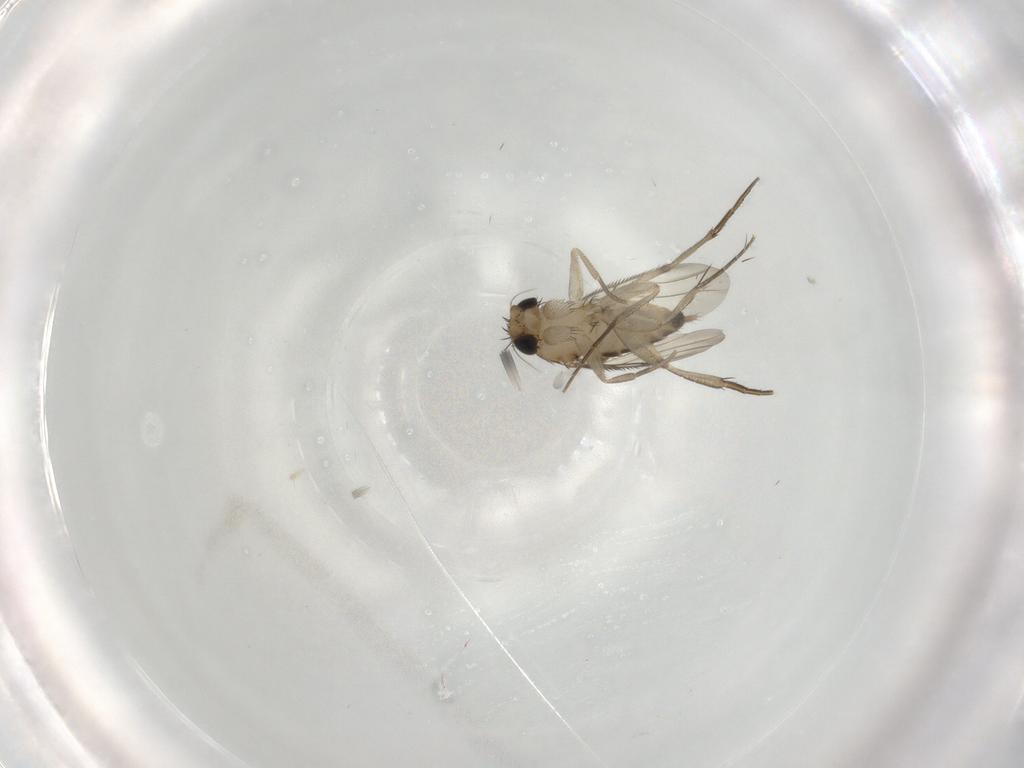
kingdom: Animalia
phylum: Arthropoda
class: Insecta
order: Diptera
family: Phoridae
